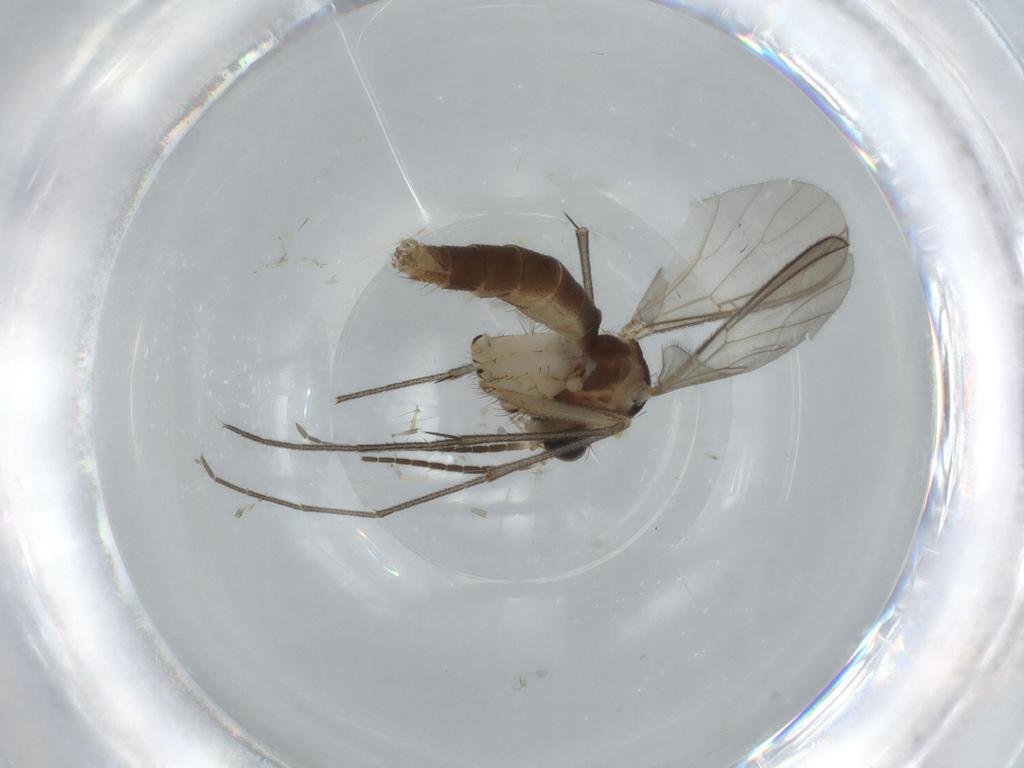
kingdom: Animalia
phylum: Arthropoda
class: Insecta
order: Diptera
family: Mycetophilidae
